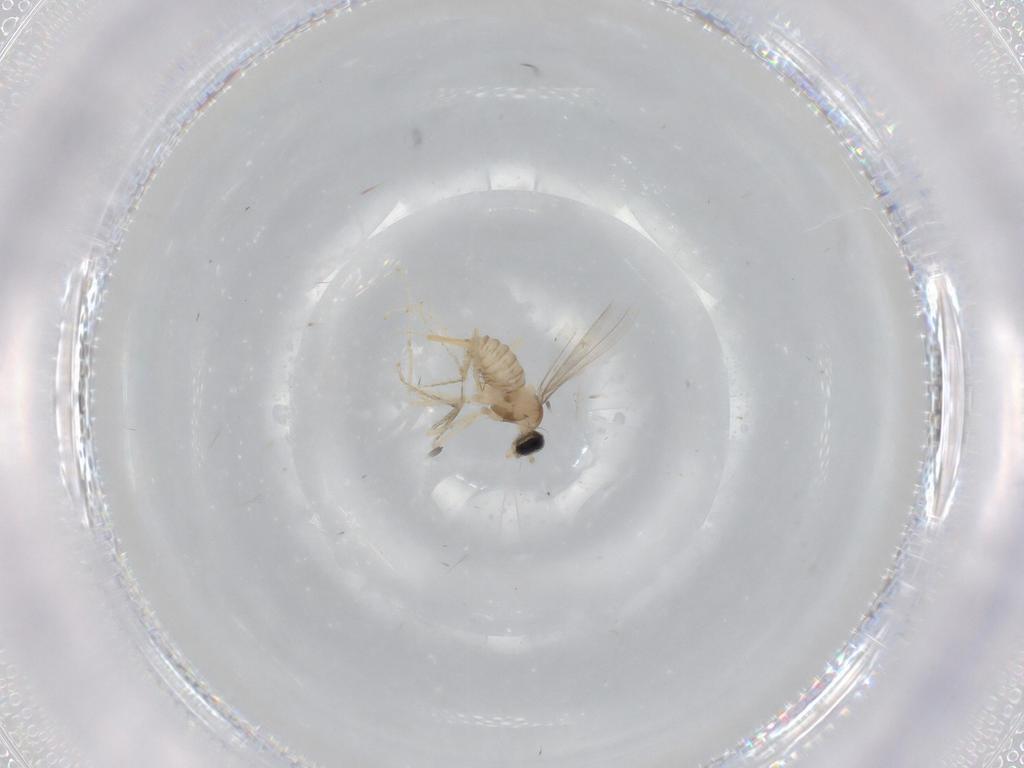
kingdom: Animalia
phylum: Arthropoda
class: Insecta
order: Diptera
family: Cecidomyiidae
